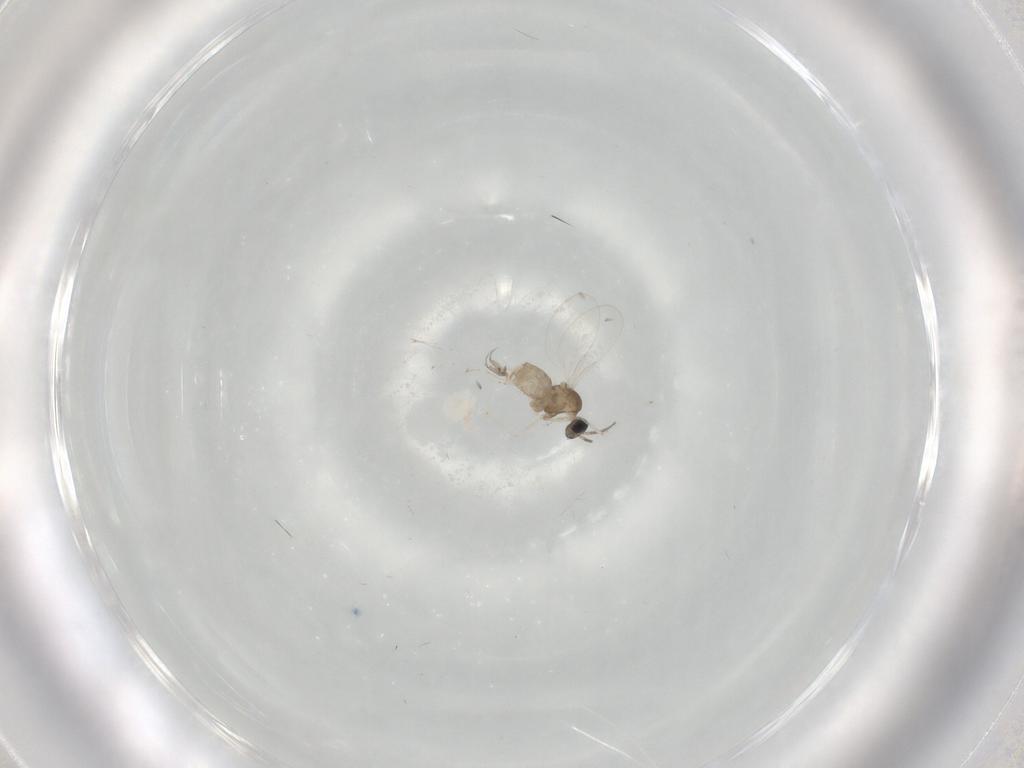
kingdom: Animalia
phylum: Arthropoda
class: Insecta
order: Diptera
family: Cecidomyiidae
